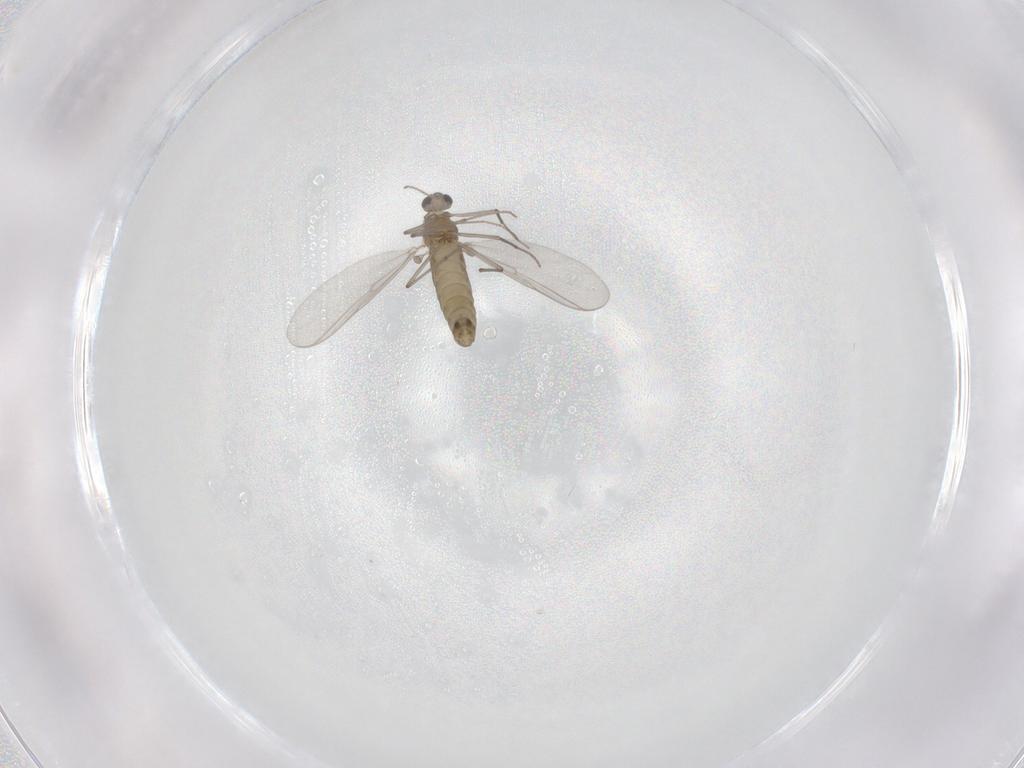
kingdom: Animalia
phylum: Arthropoda
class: Insecta
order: Diptera
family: Chironomidae
